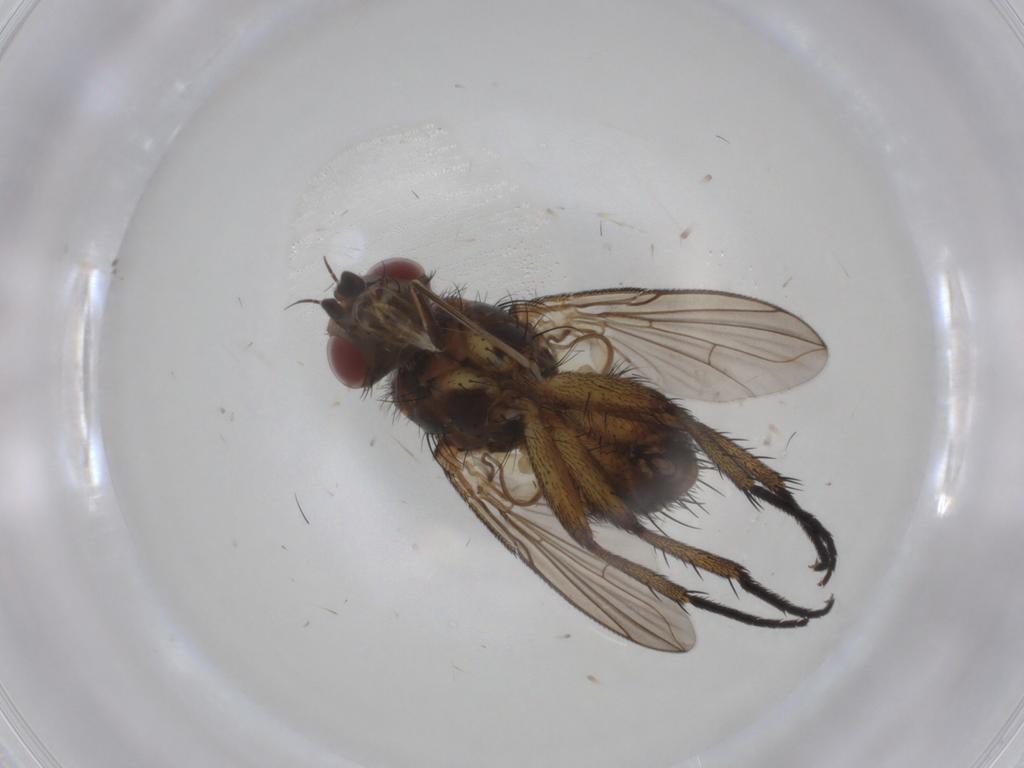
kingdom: Animalia
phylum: Arthropoda
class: Insecta
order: Diptera
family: Tachinidae
